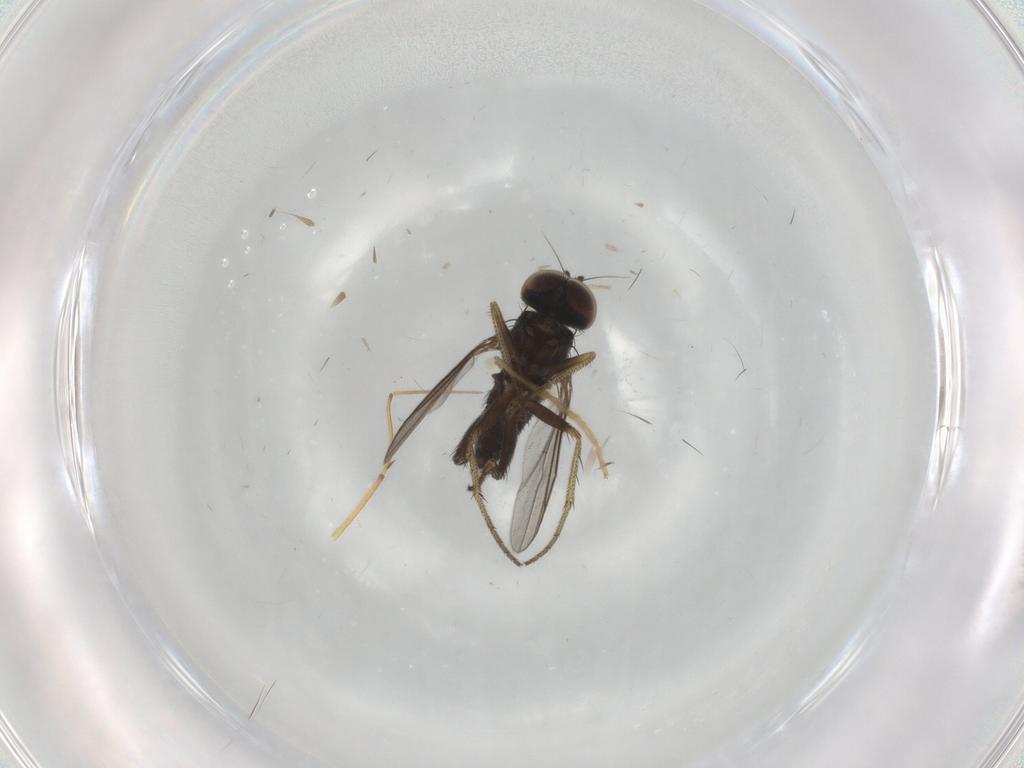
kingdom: Animalia
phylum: Arthropoda
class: Insecta
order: Diptera
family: Dolichopodidae
